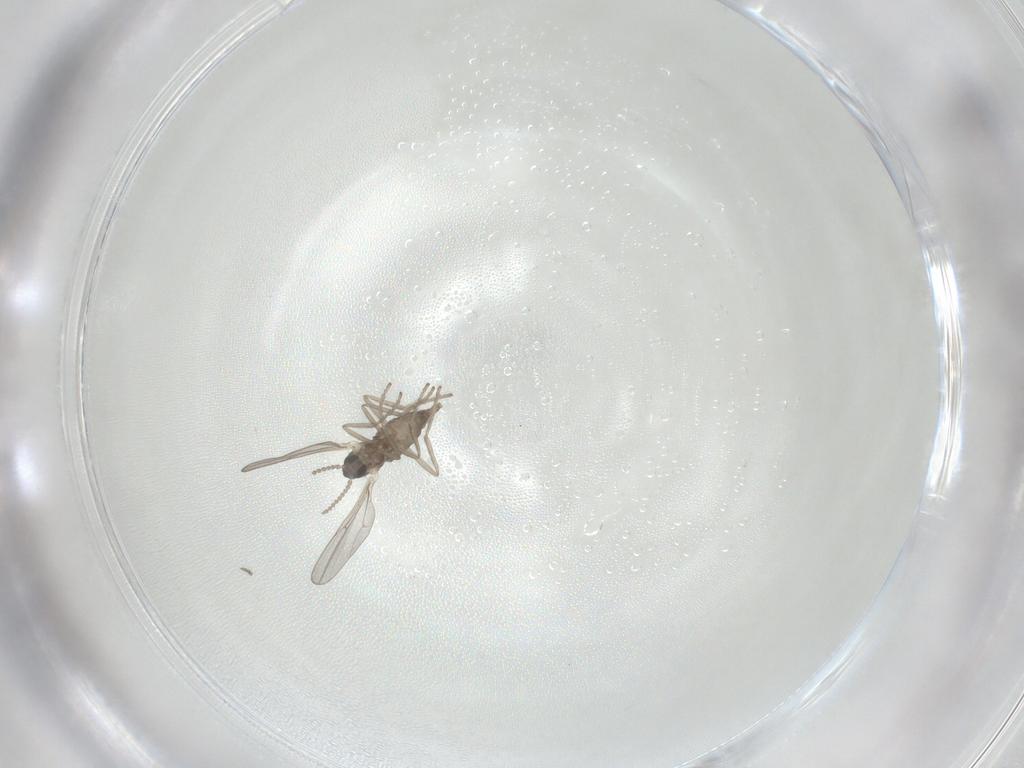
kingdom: Animalia
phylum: Arthropoda
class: Insecta
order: Diptera
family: Cecidomyiidae
